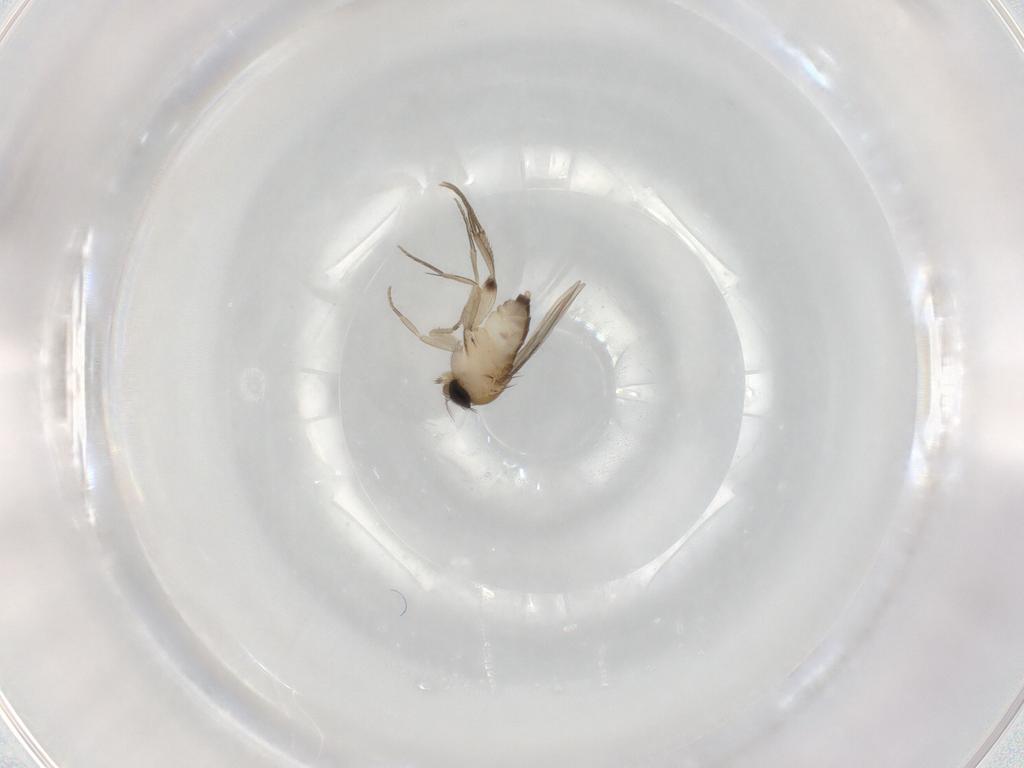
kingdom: Animalia
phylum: Arthropoda
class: Insecta
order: Diptera
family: Phoridae
